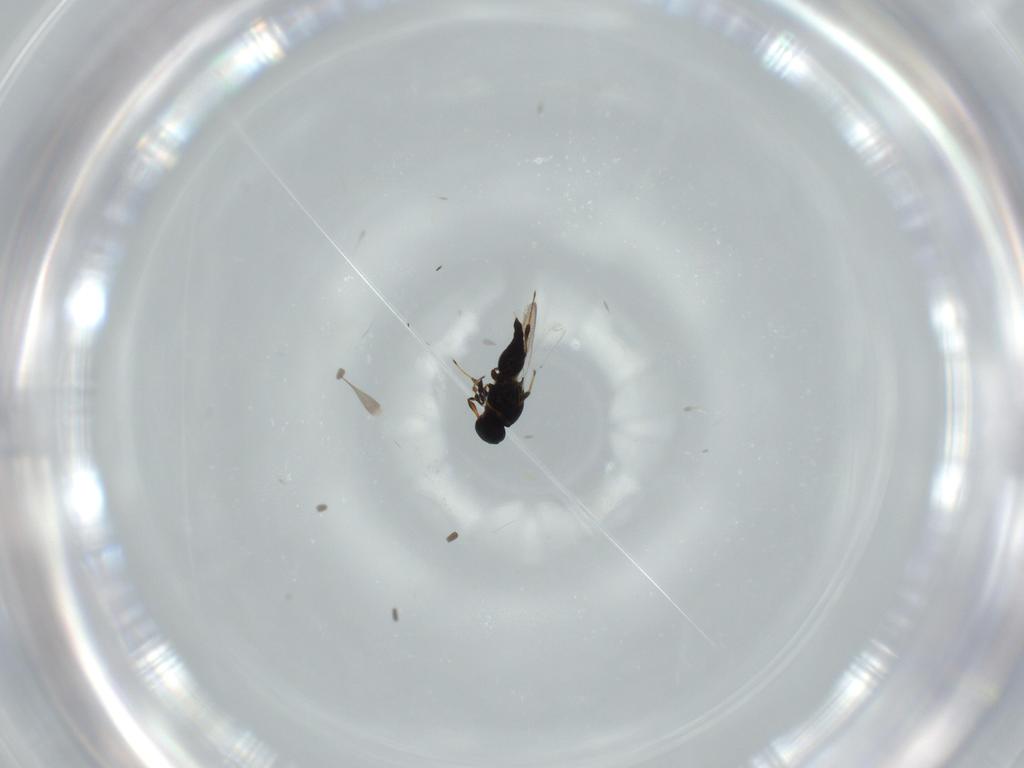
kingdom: Animalia
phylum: Arthropoda
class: Insecta
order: Hymenoptera
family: Platygastridae
